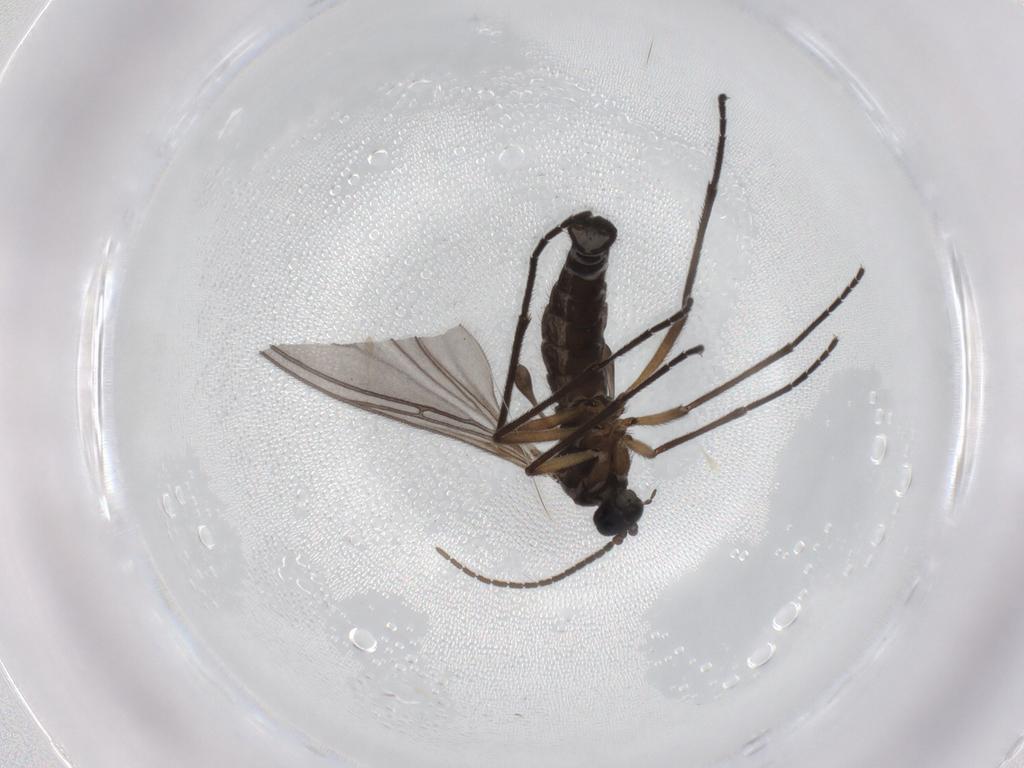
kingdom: Animalia
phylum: Arthropoda
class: Insecta
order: Diptera
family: Sciaridae
